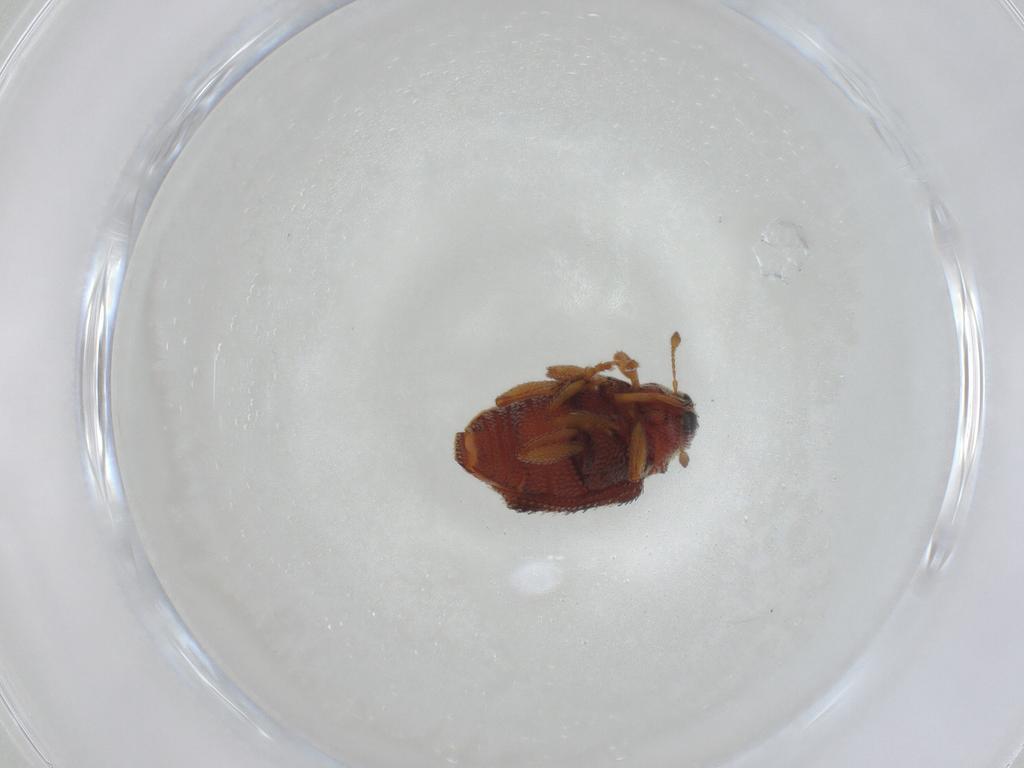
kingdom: Animalia
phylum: Arthropoda
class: Insecta
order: Coleoptera
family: Curculionidae
